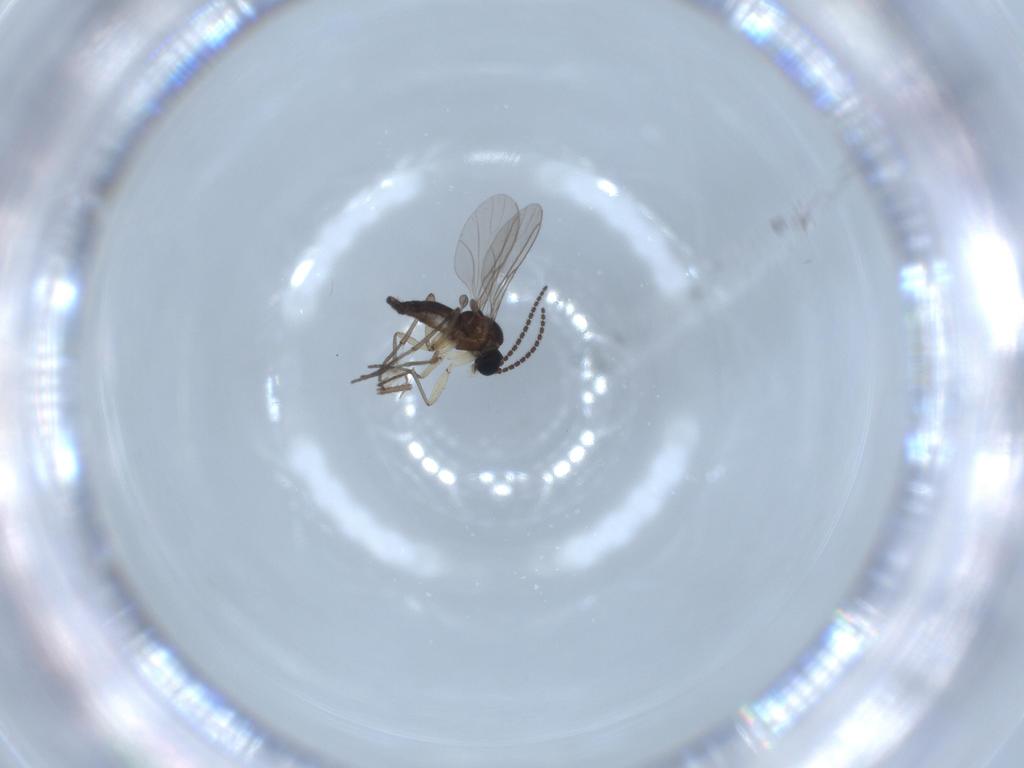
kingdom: Animalia
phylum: Arthropoda
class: Insecta
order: Diptera
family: Sciaridae
